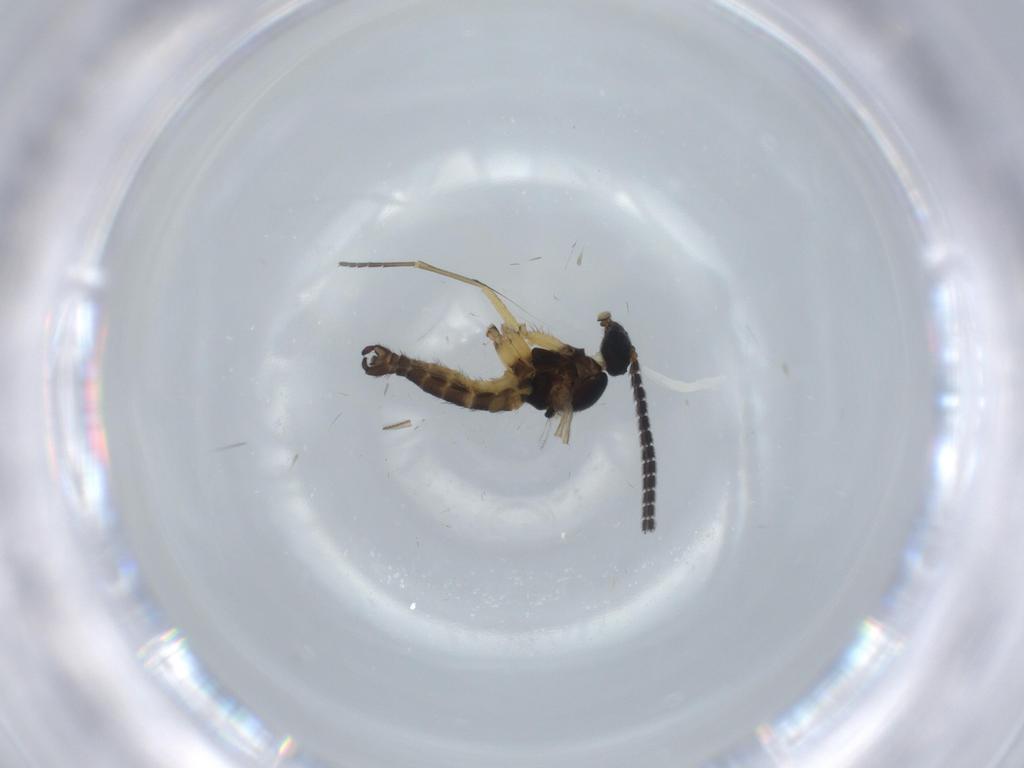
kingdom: Animalia
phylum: Arthropoda
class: Insecta
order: Diptera
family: Sciaridae
